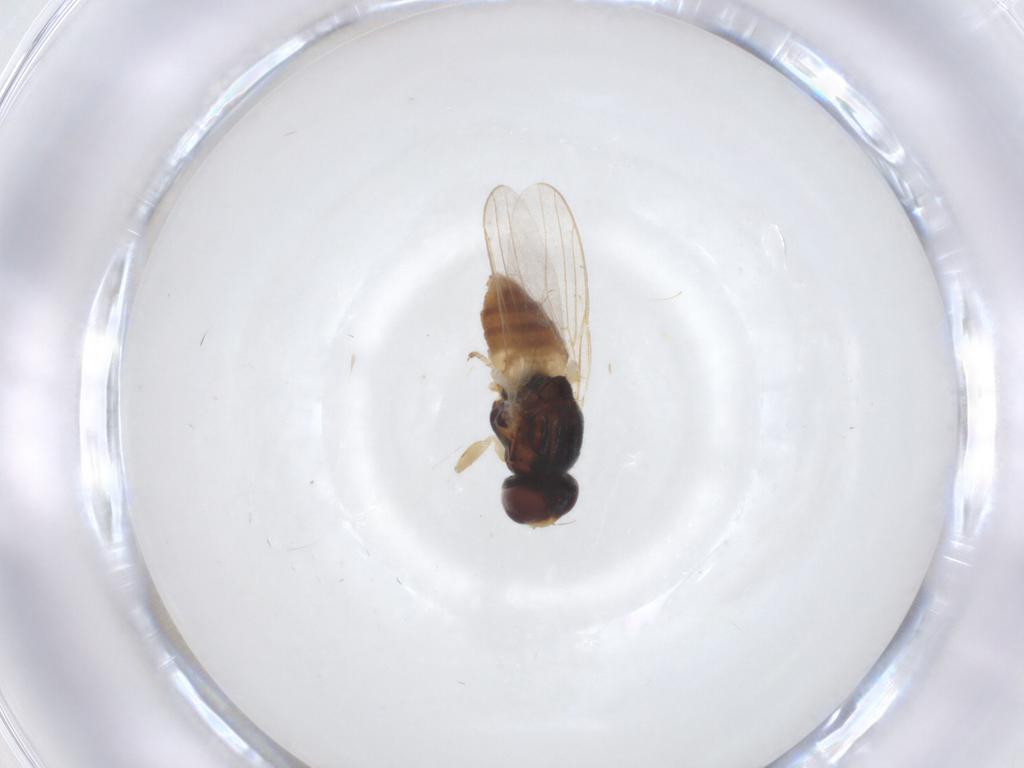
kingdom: Animalia
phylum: Arthropoda
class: Insecta
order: Diptera
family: Chloropidae
